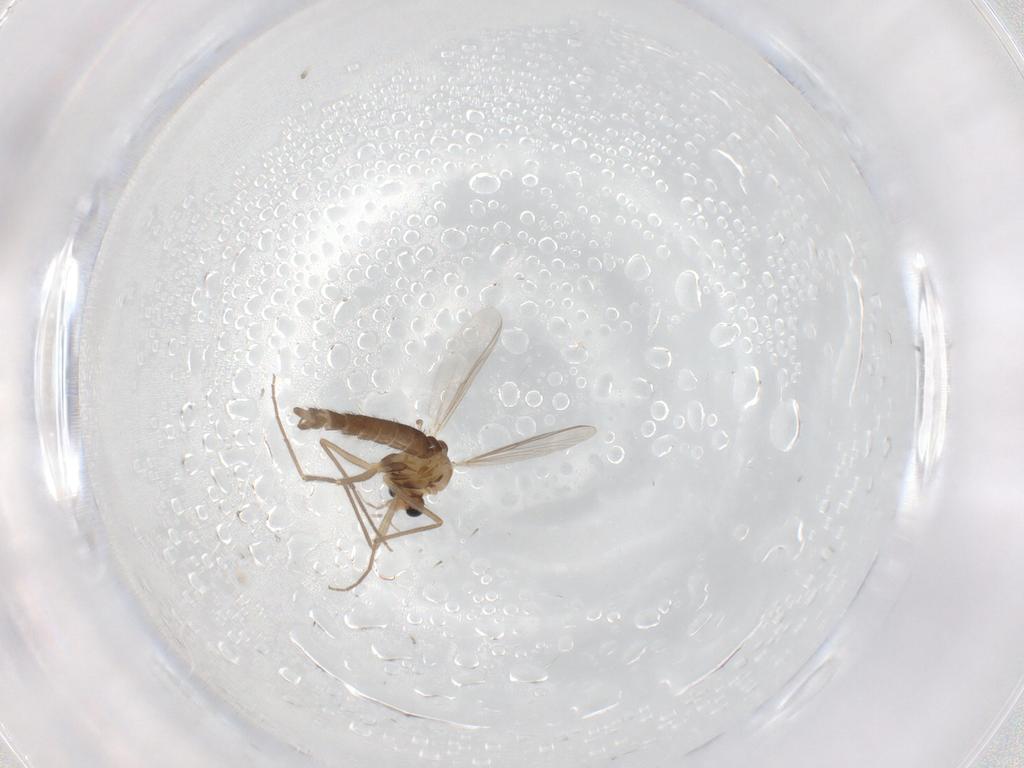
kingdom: Animalia
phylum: Arthropoda
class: Insecta
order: Diptera
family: Chironomidae
